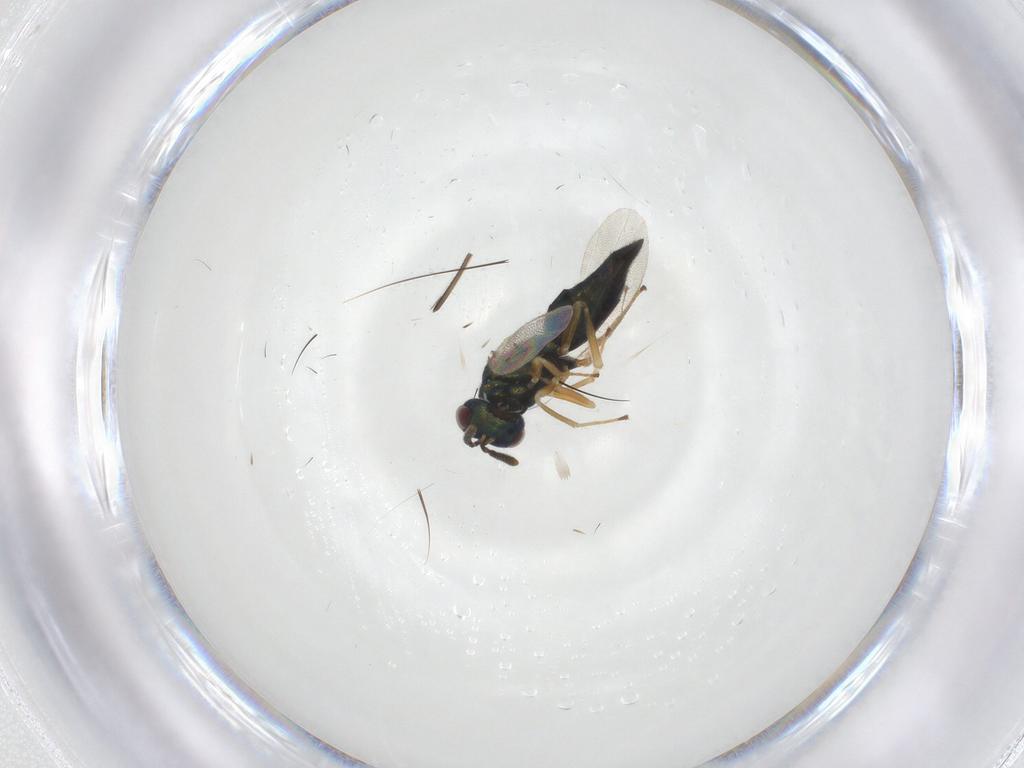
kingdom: Animalia
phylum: Arthropoda
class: Insecta
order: Hymenoptera
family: Pteromalidae
